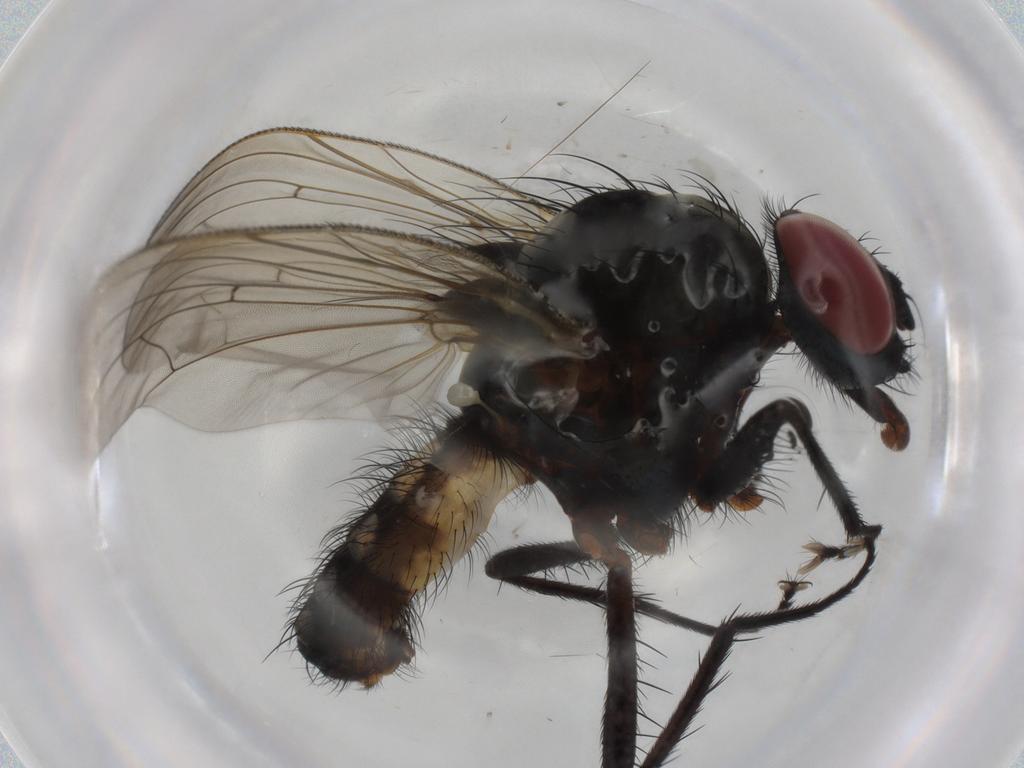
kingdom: Animalia
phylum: Arthropoda
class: Insecta
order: Diptera
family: Anthomyiidae
